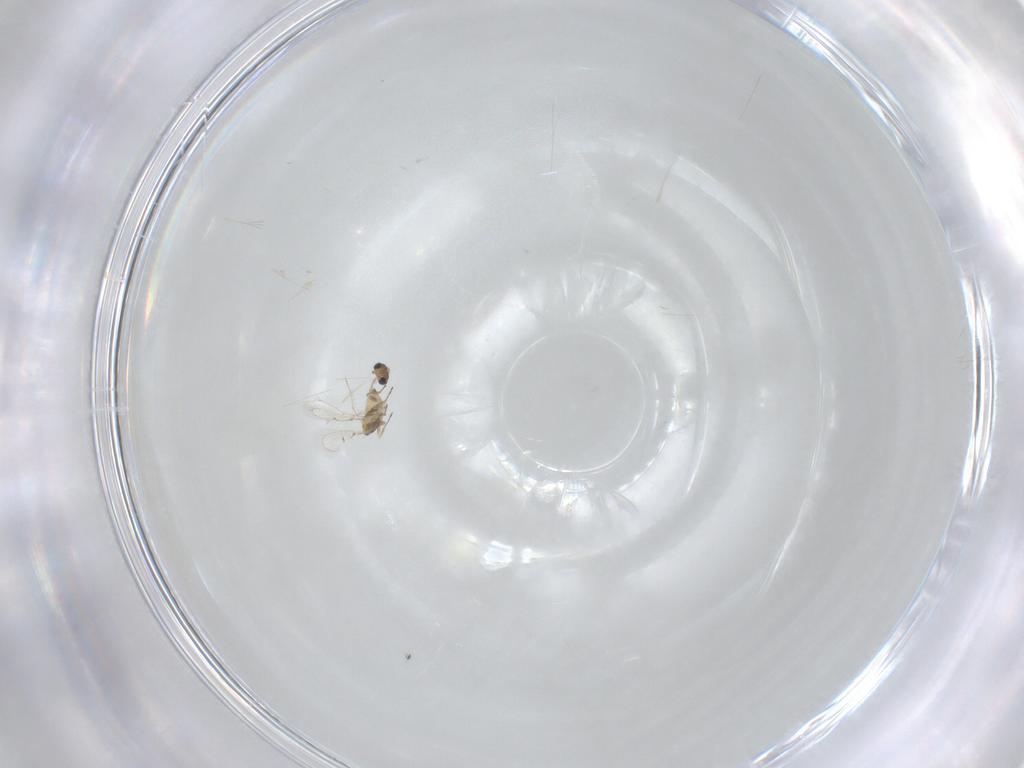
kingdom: Animalia
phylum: Arthropoda
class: Insecta
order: Hymenoptera
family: Trichogrammatidae
